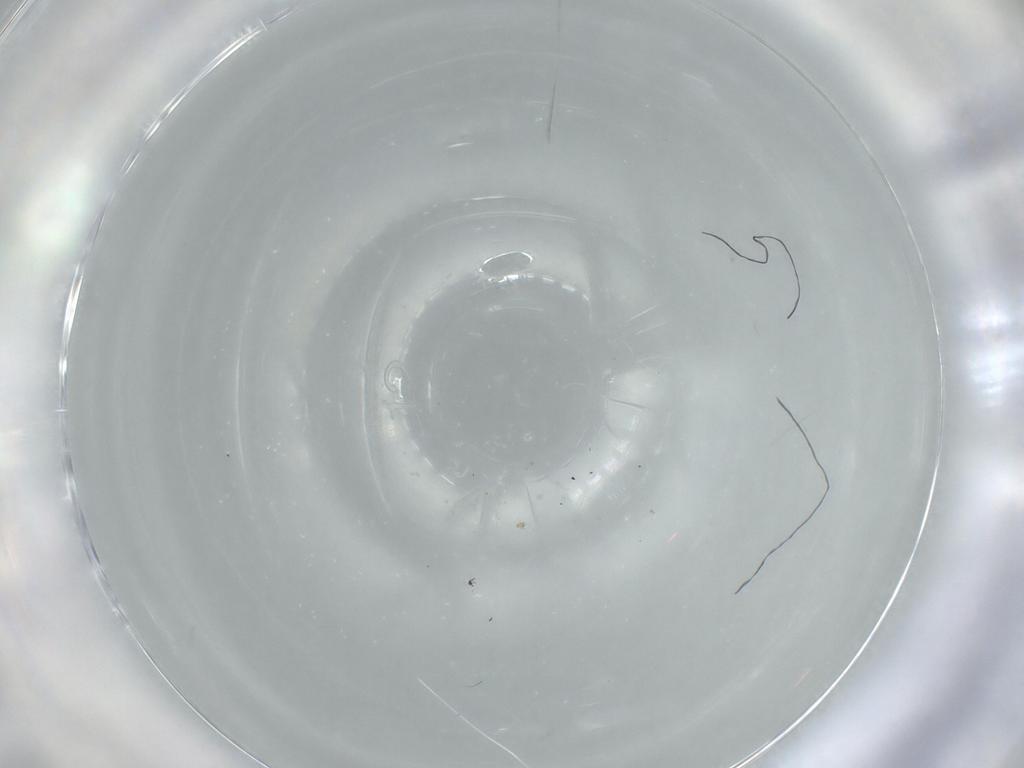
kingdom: Animalia
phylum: Arthropoda
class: Insecta
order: Diptera
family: Drosophilidae
